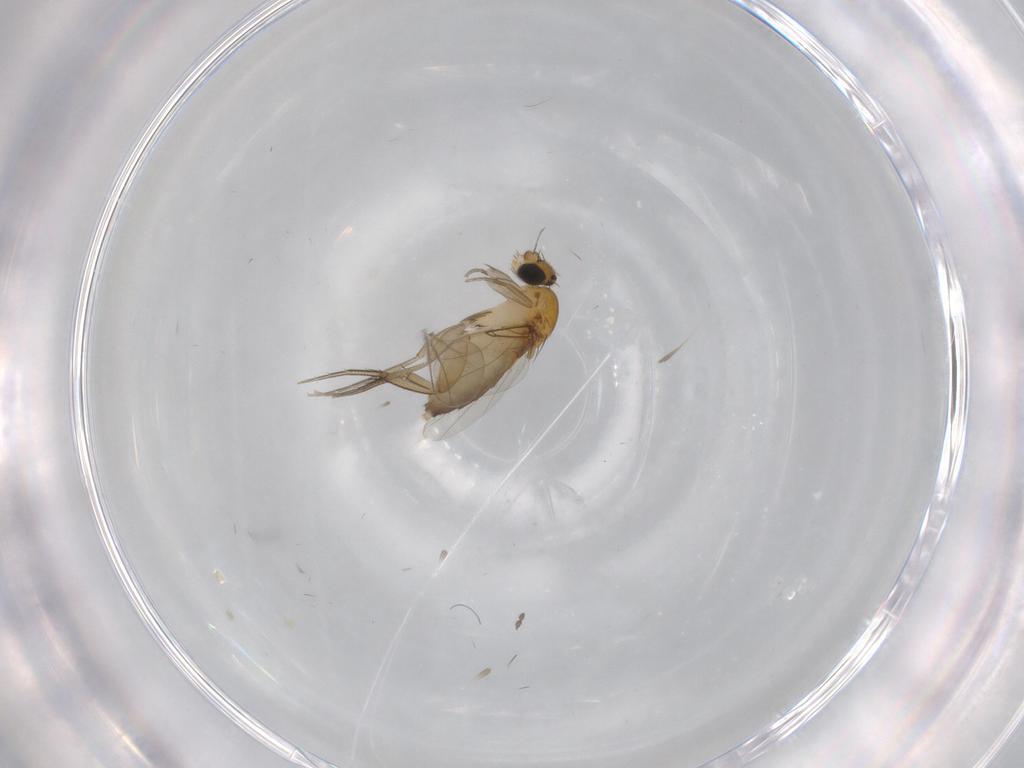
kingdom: Animalia
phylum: Arthropoda
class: Insecta
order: Diptera
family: Phoridae
